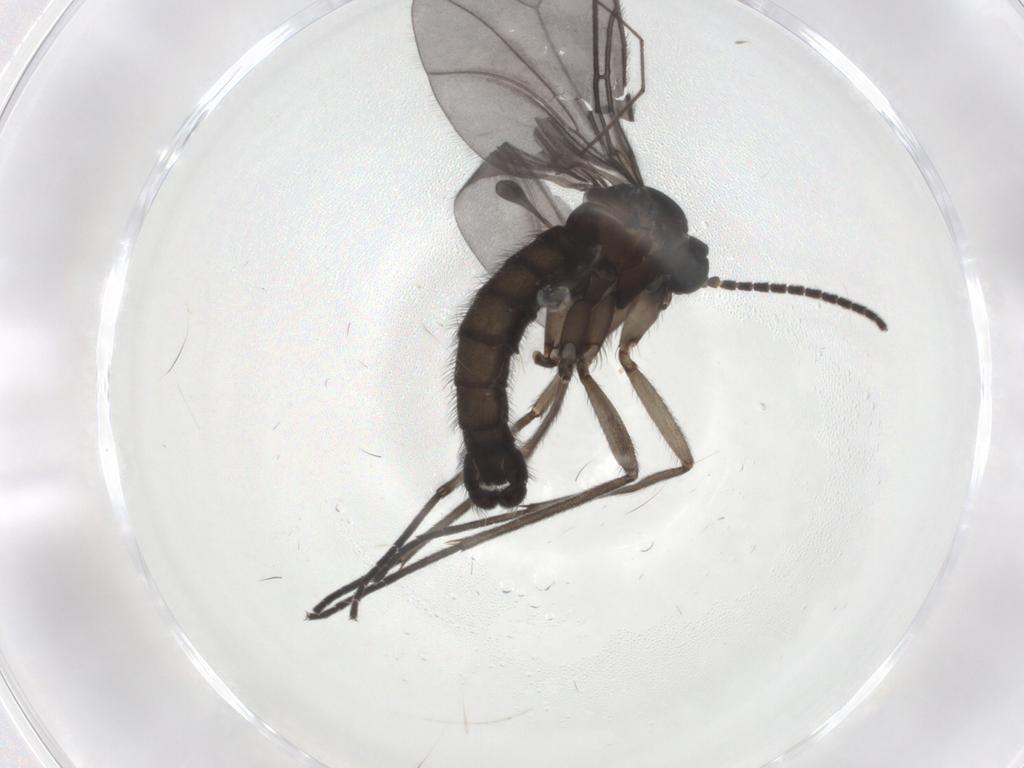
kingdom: Animalia
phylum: Arthropoda
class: Insecta
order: Diptera
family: Sciaridae
